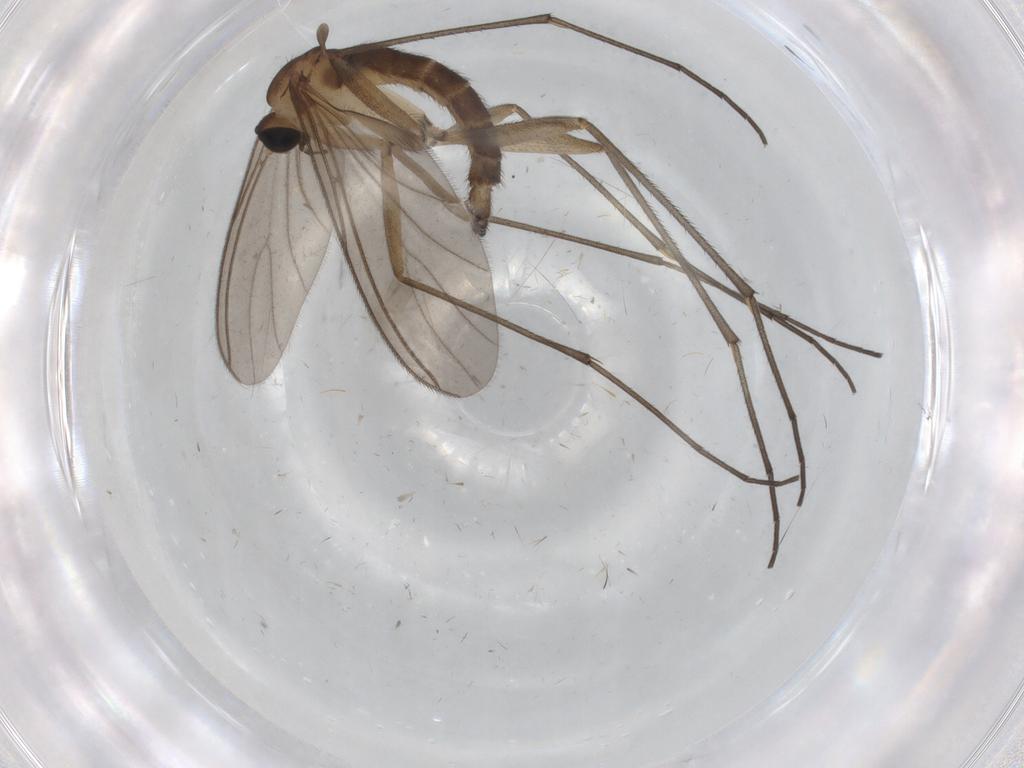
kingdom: Animalia
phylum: Arthropoda
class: Insecta
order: Diptera
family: Sciaridae
